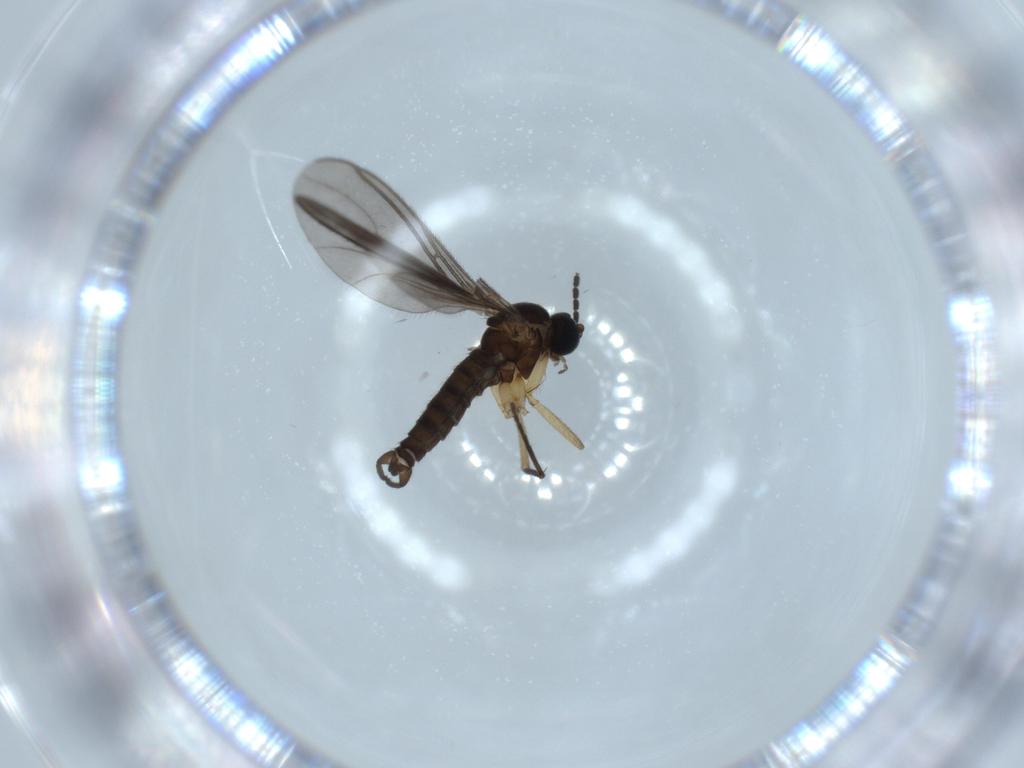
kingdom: Animalia
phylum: Arthropoda
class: Insecta
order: Diptera
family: Sciaridae
